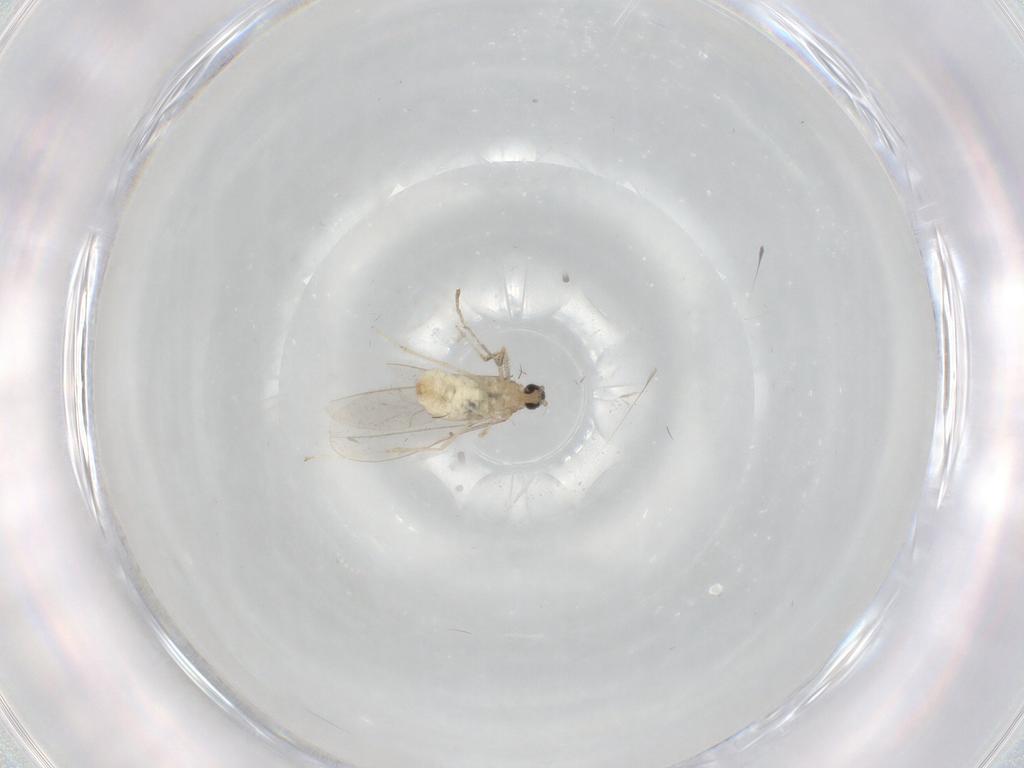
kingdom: Animalia
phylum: Arthropoda
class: Insecta
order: Diptera
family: Cecidomyiidae
